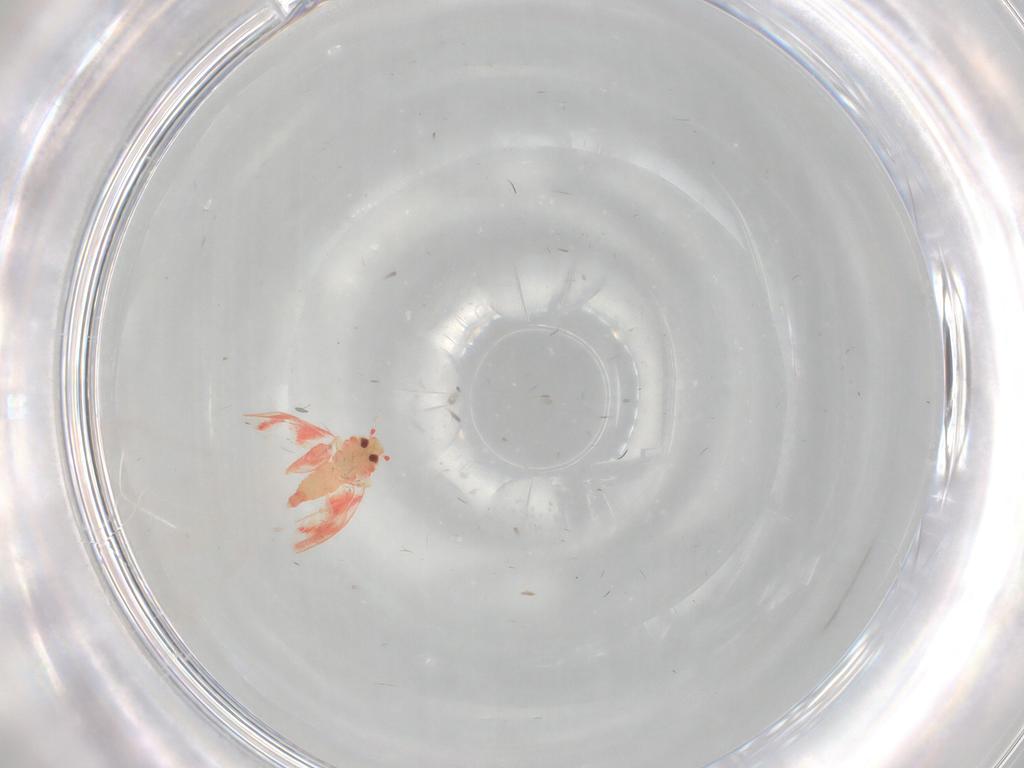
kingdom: Animalia
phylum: Arthropoda
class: Insecta
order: Hemiptera
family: Aleyrodidae
